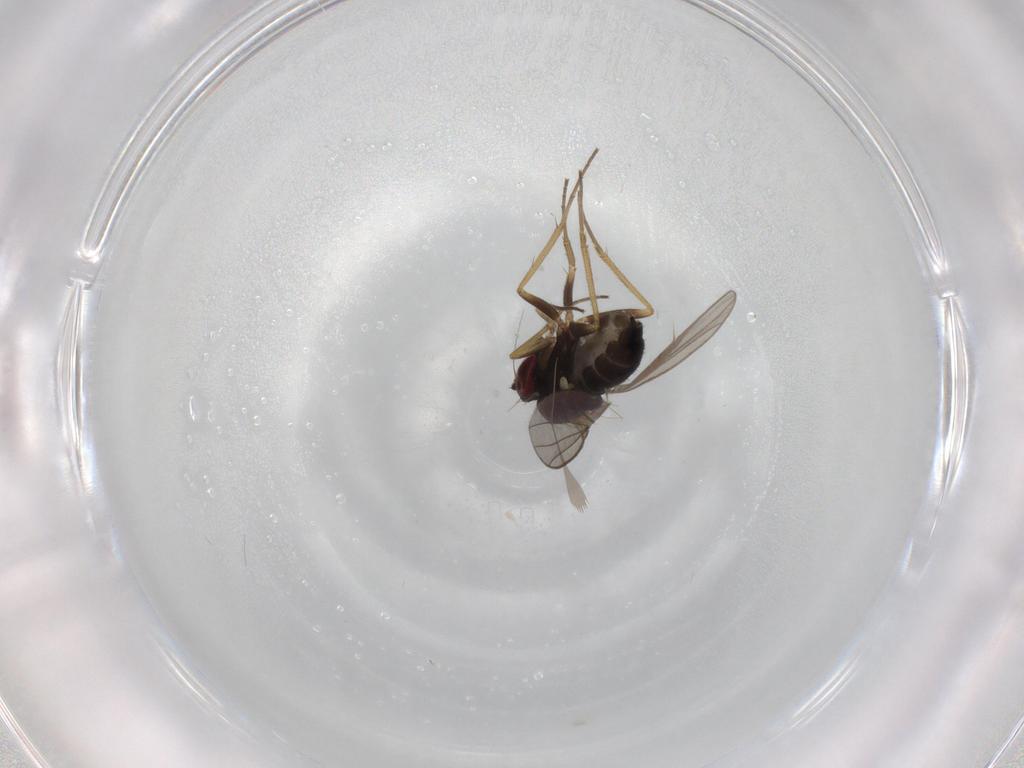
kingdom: Animalia
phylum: Arthropoda
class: Insecta
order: Diptera
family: Dolichopodidae
